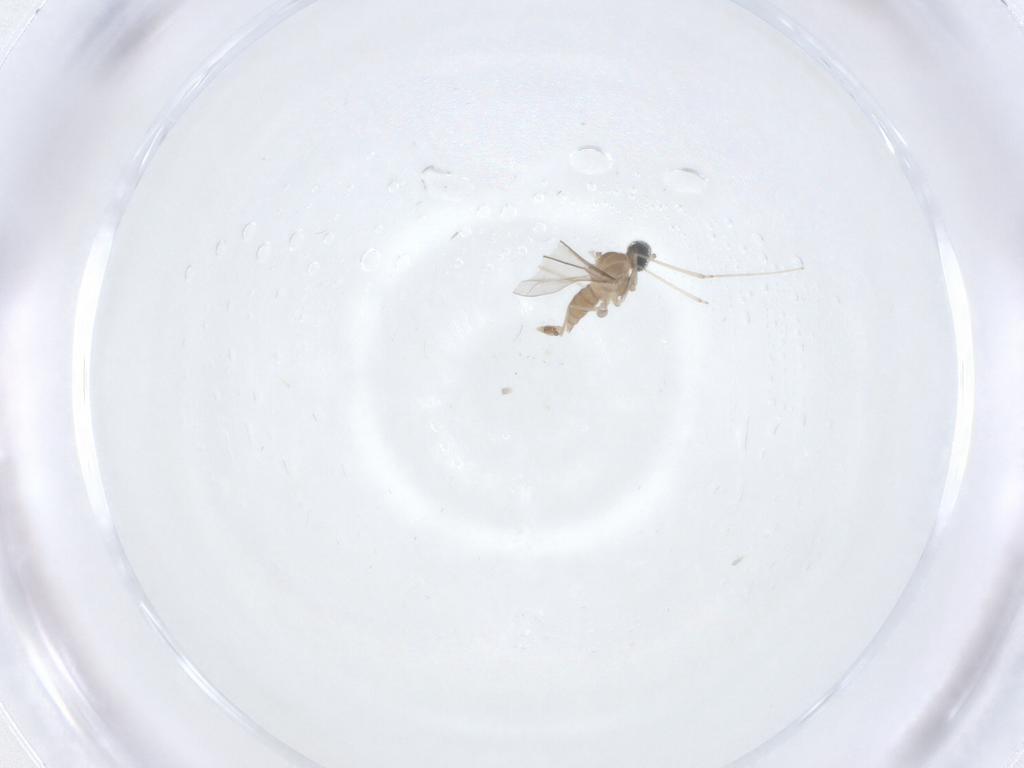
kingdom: Animalia
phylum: Arthropoda
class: Insecta
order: Diptera
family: Cecidomyiidae
